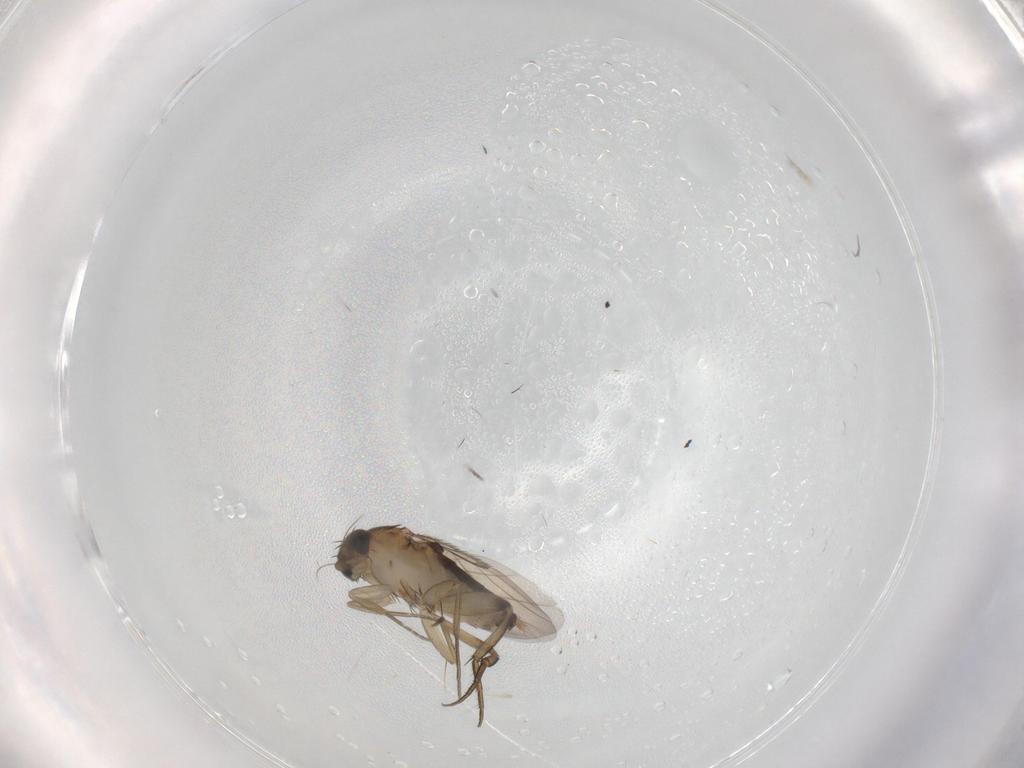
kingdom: Animalia
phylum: Arthropoda
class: Insecta
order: Diptera
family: Phoridae
